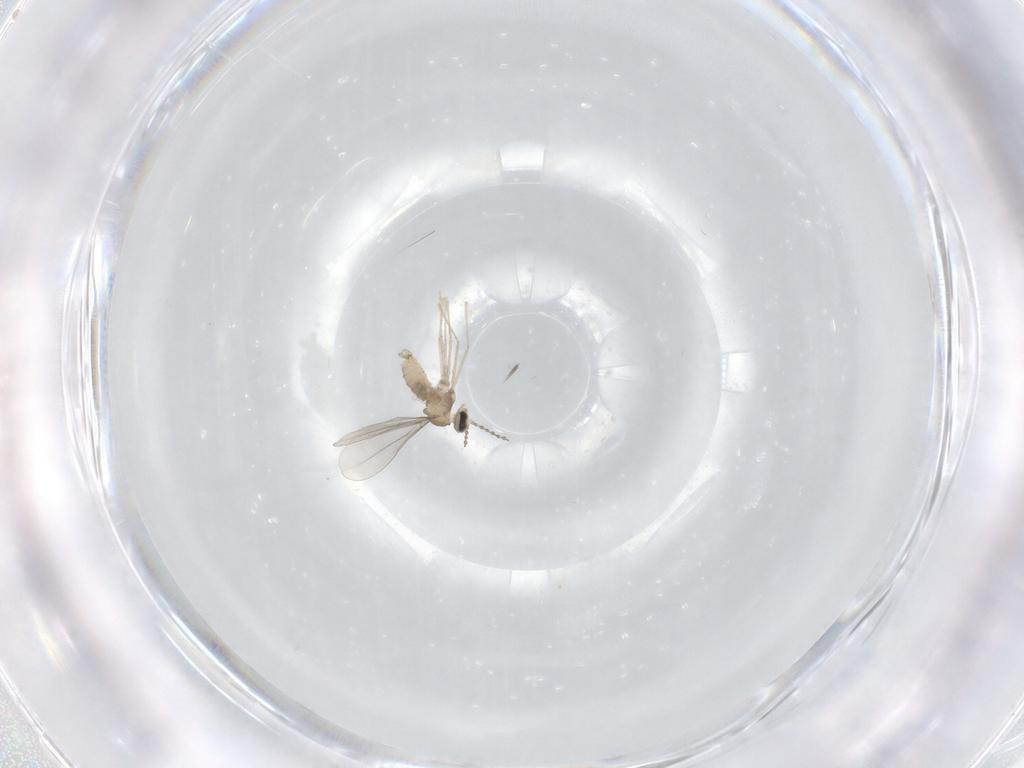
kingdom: Animalia
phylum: Arthropoda
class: Insecta
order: Diptera
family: Cecidomyiidae
